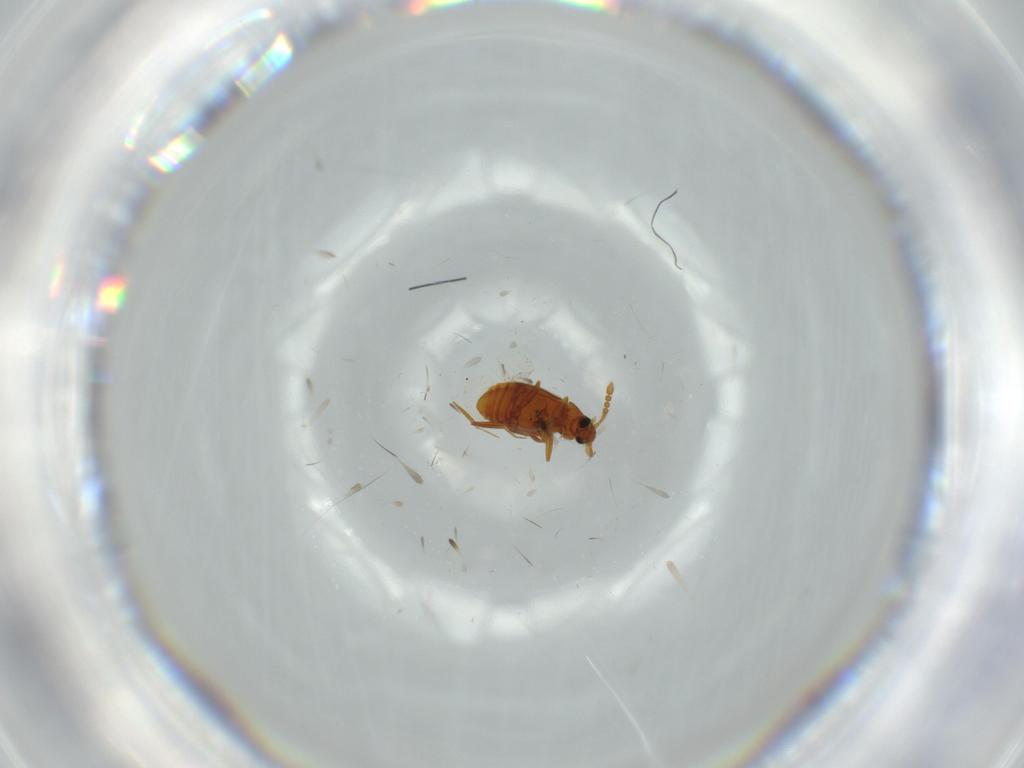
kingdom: Animalia
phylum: Arthropoda
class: Insecta
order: Coleoptera
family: Staphylinidae
